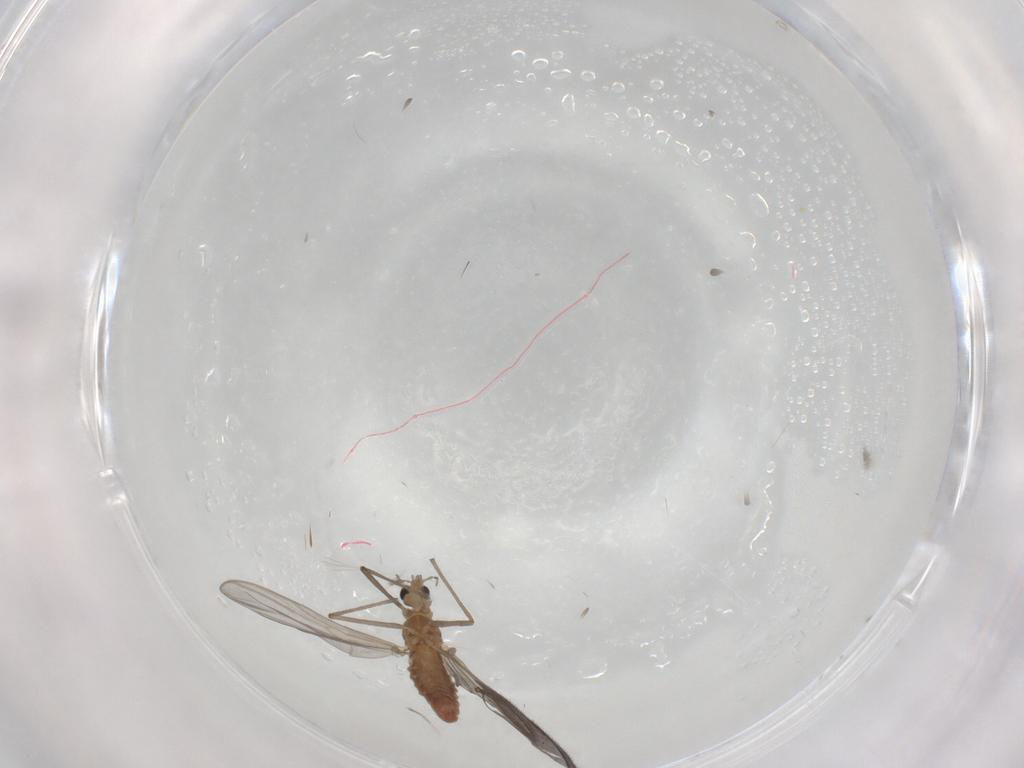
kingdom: Animalia
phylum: Arthropoda
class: Insecta
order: Diptera
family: Chironomidae
